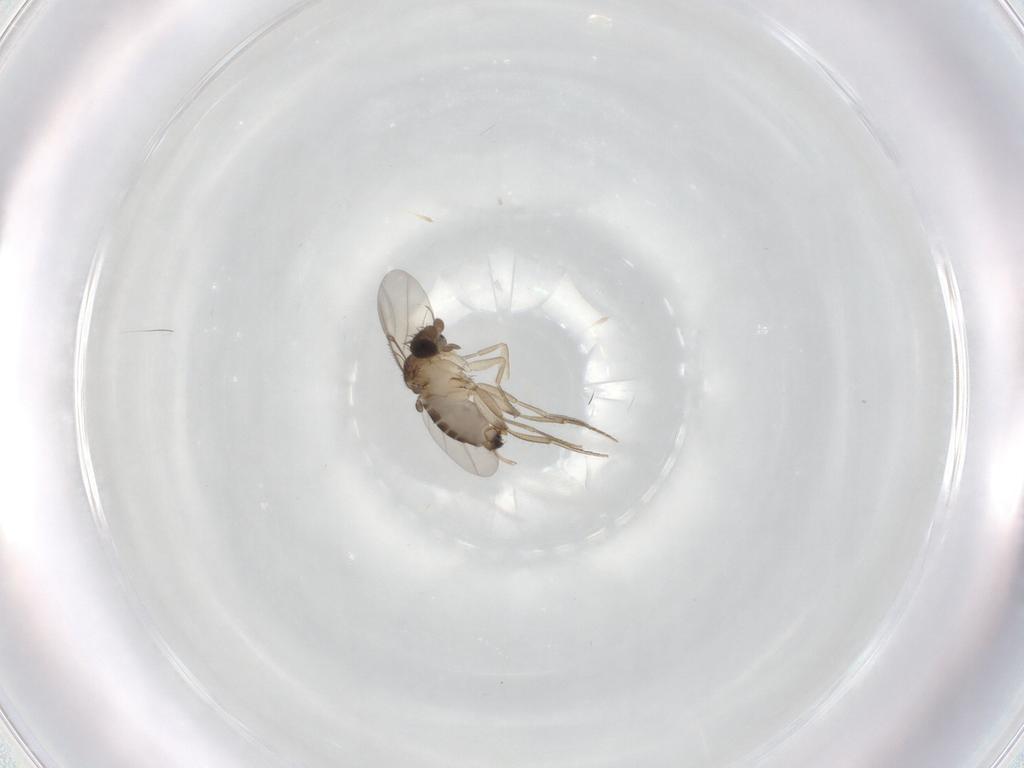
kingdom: Animalia
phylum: Arthropoda
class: Insecta
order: Diptera
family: Phoridae
